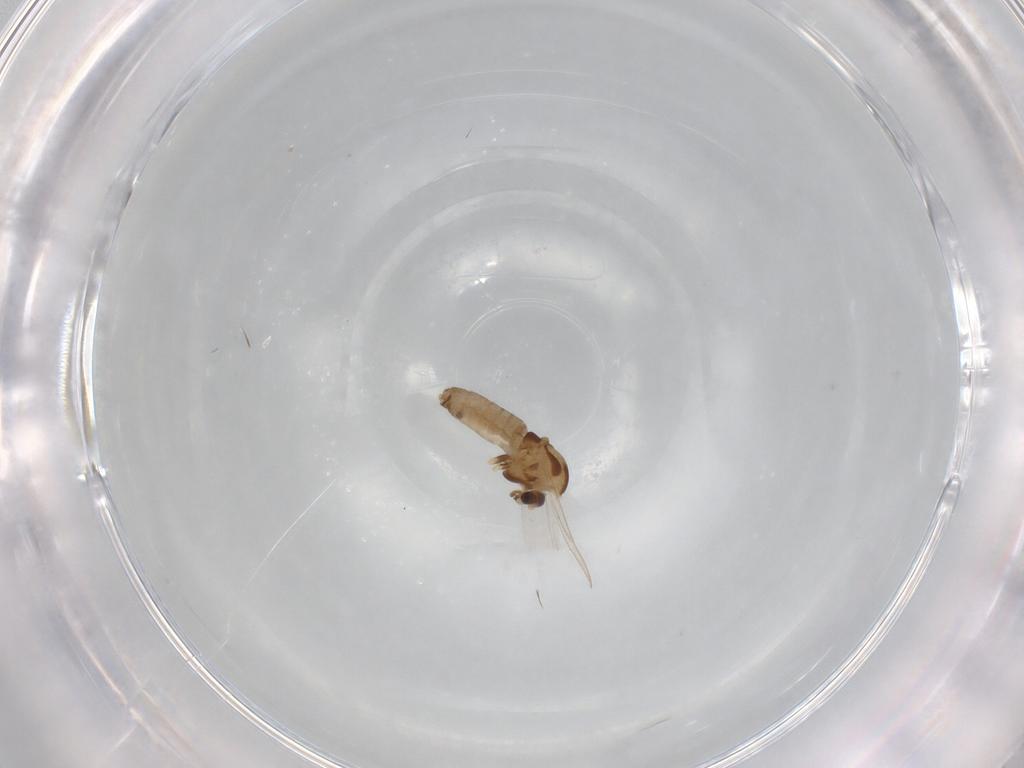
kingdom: Animalia
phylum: Arthropoda
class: Insecta
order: Diptera
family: Chironomidae
